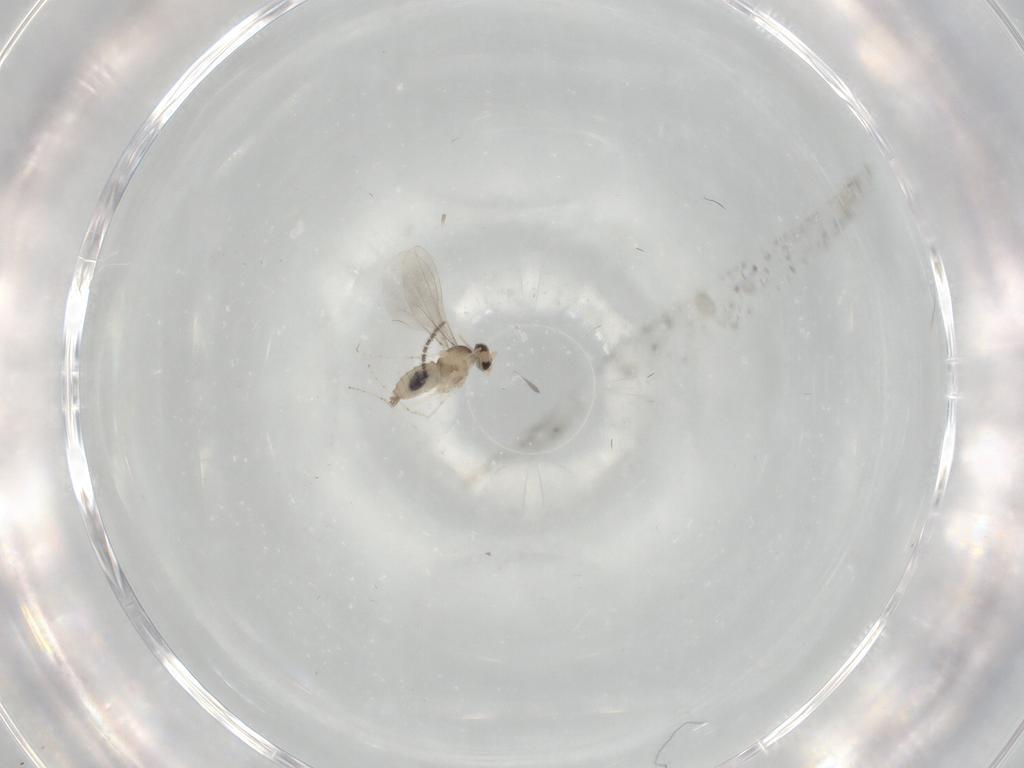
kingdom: Animalia
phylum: Arthropoda
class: Insecta
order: Diptera
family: Cecidomyiidae
